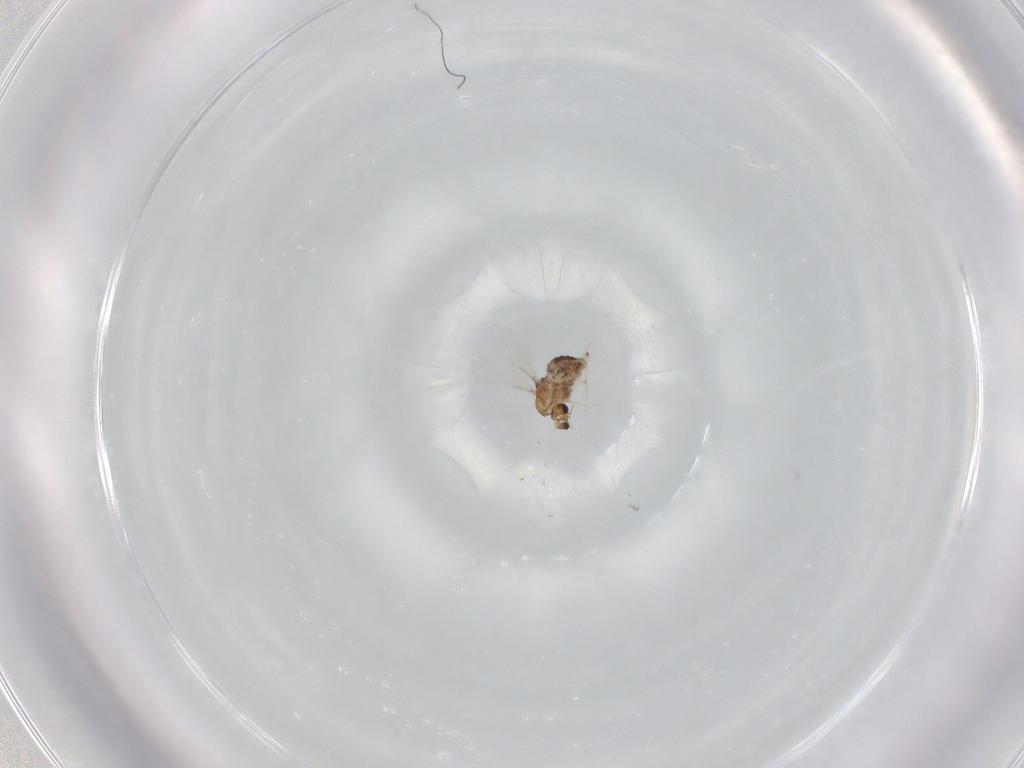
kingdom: Animalia
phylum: Arthropoda
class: Insecta
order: Diptera
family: Chironomidae
